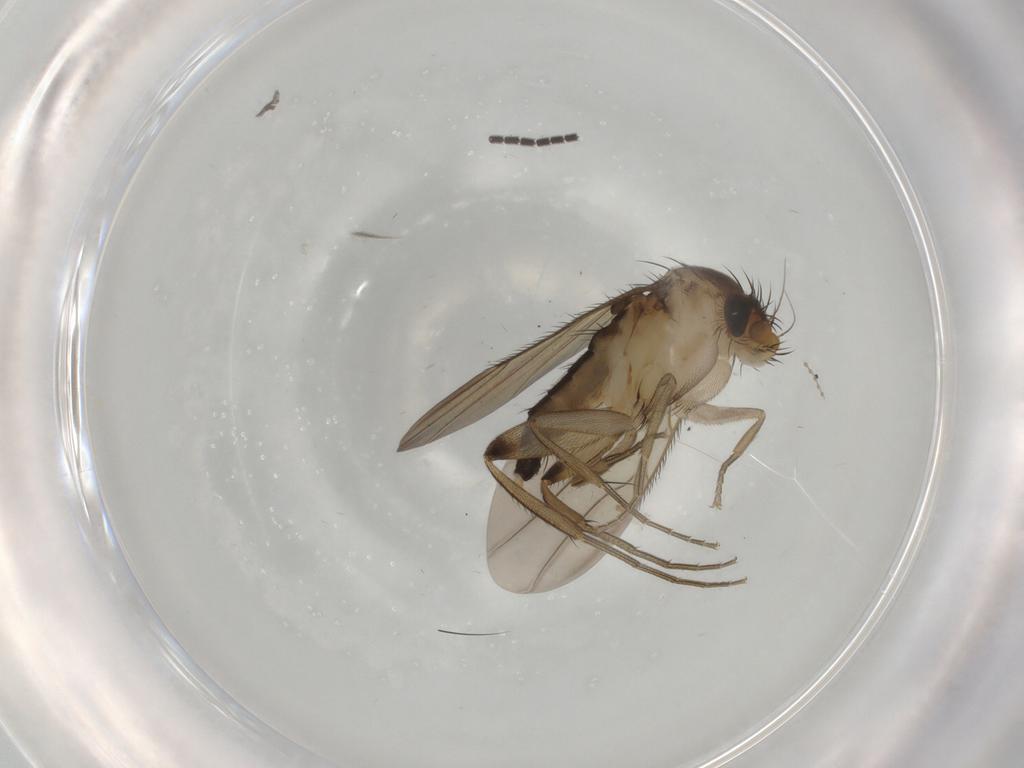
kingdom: Animalia
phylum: Arthropoda
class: Insecta
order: Diptera
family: Phoridae
